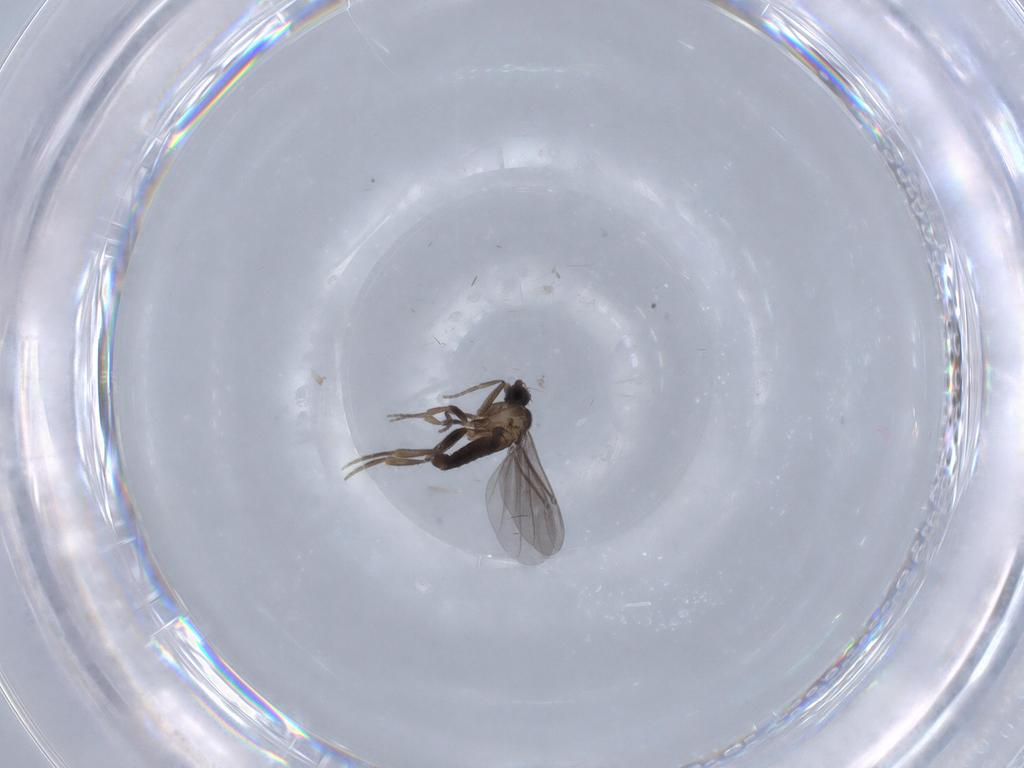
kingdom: Animalia
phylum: Arthropoda
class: Insecta
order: Diptera
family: Phoridae
